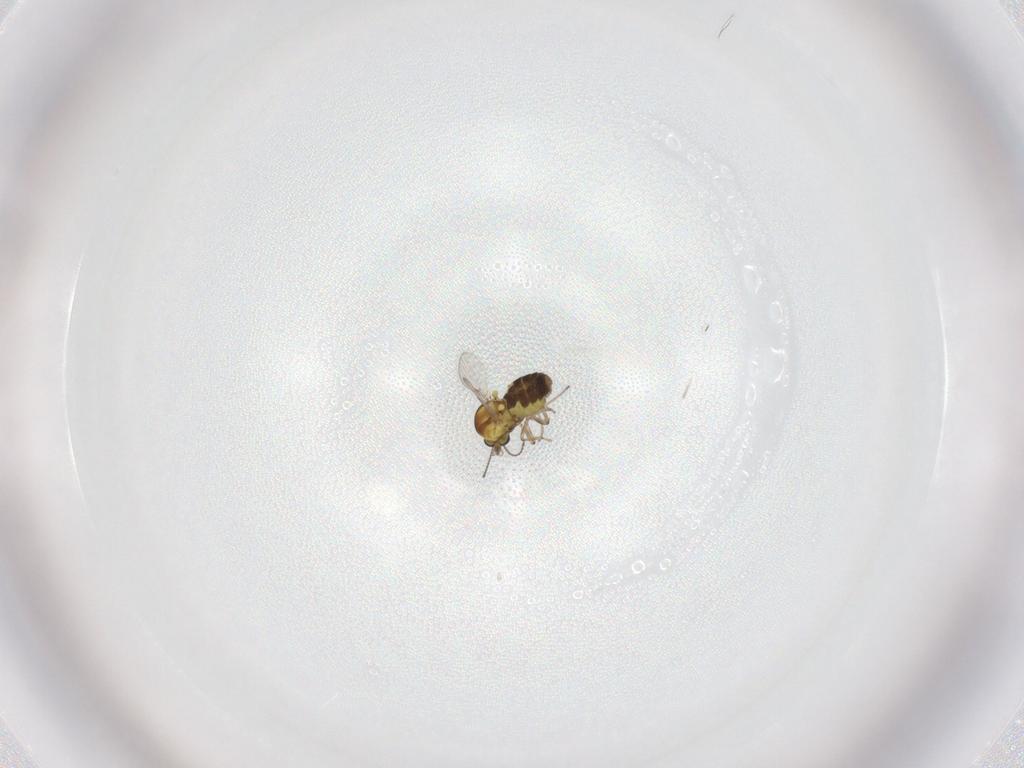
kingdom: Animalia
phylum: Arthropoda
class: Insecta
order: Diptera
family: Ceratopogonidae
